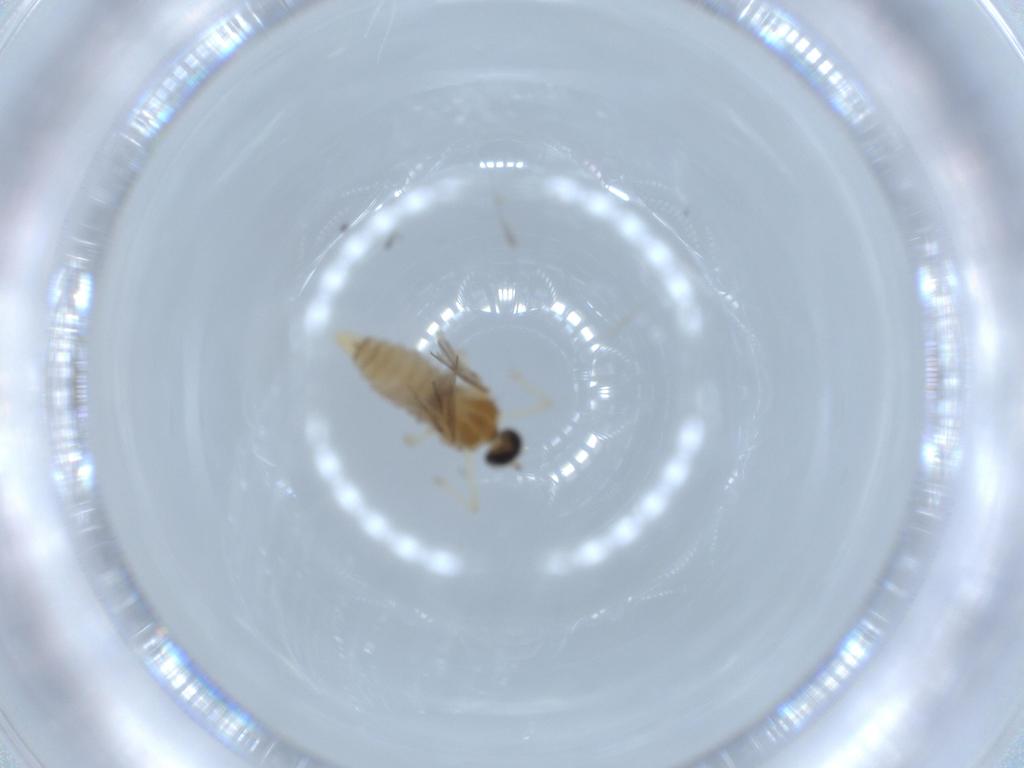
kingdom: Animalia
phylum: Arthropoda
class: Insecta
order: Diptera
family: Cecidomyiidae
